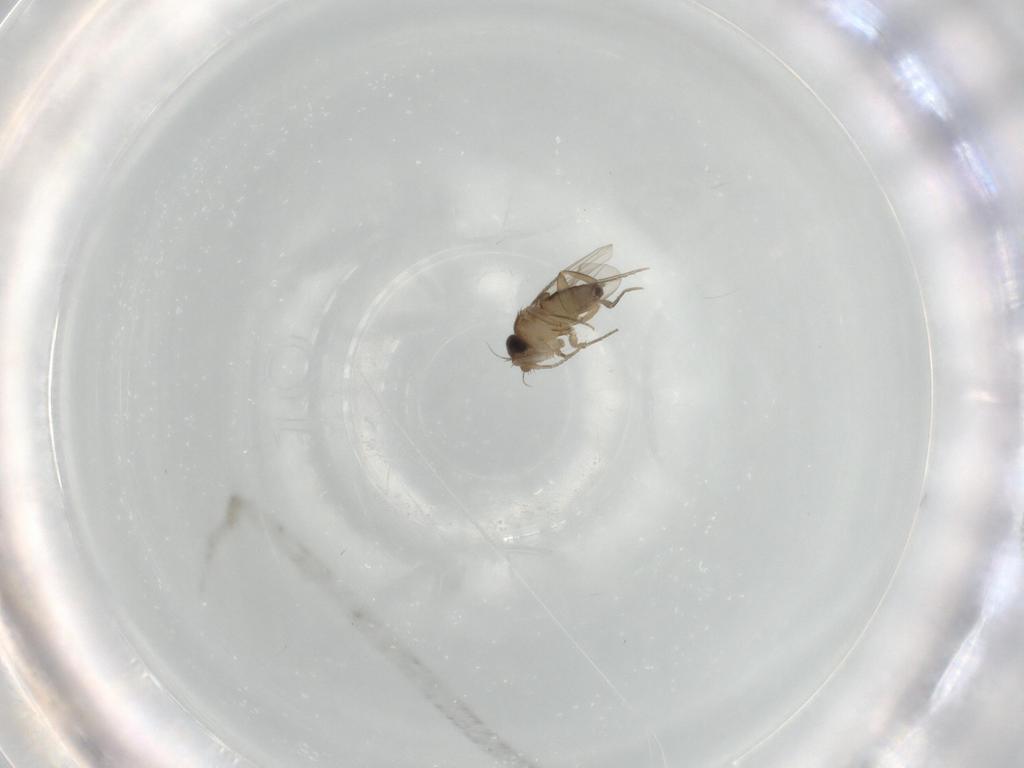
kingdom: Animalia
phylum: Arthropoda
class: Insecta
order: Diptera
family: Phoridae
